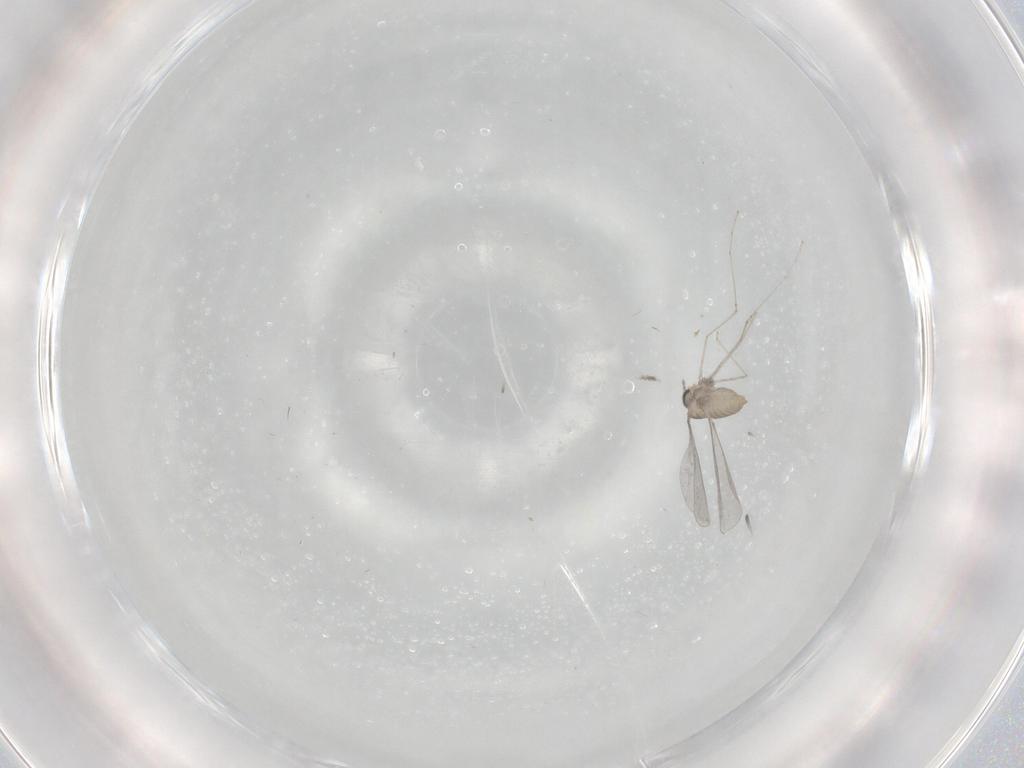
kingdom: Animalia
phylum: Arthropoda
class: Insecta
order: Diptera
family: Cecidomyiidae
